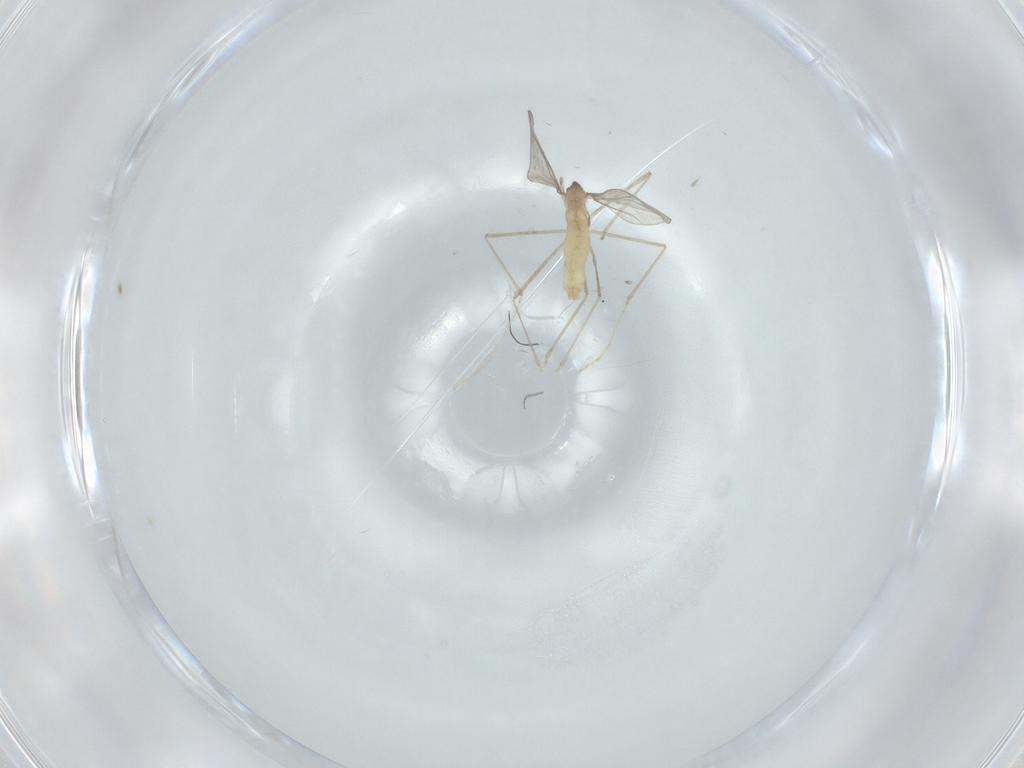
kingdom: Animalia
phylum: Arthropoda
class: Insecta
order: Diptera
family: Cecidomyiidae
